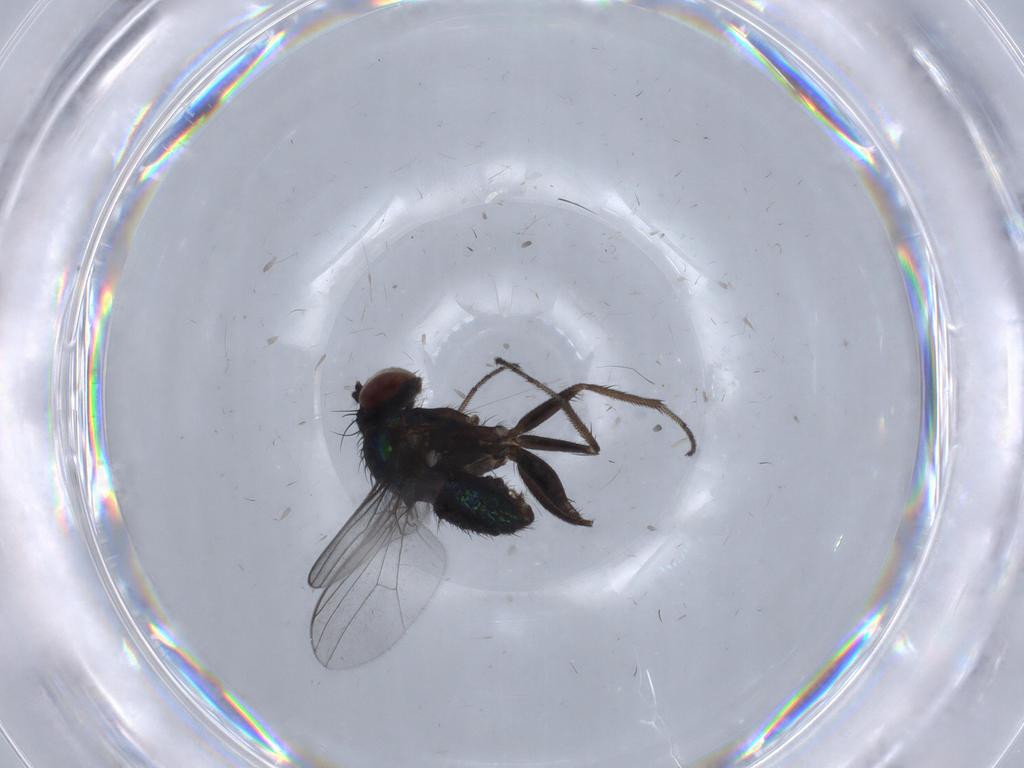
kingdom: Animalia
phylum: Arthropoda
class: Insecta
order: Diptera
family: Dolichopodidae
